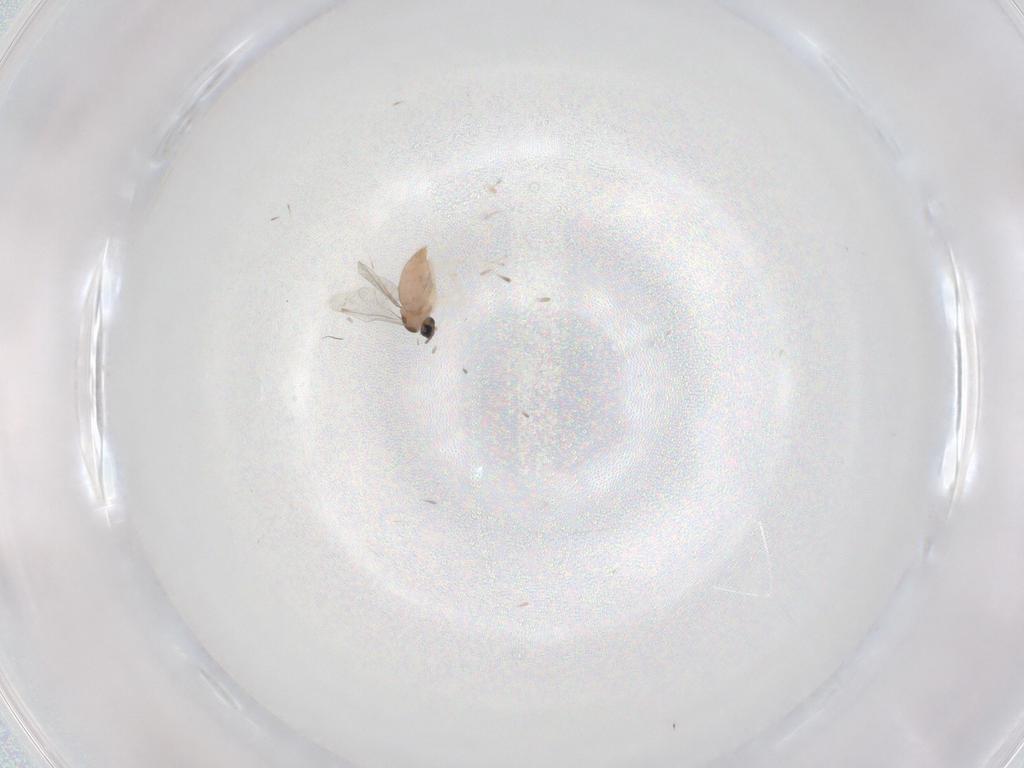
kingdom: Animalia
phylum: Arthropoda
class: Insecta
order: Diptera
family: Cecidomyiidae
